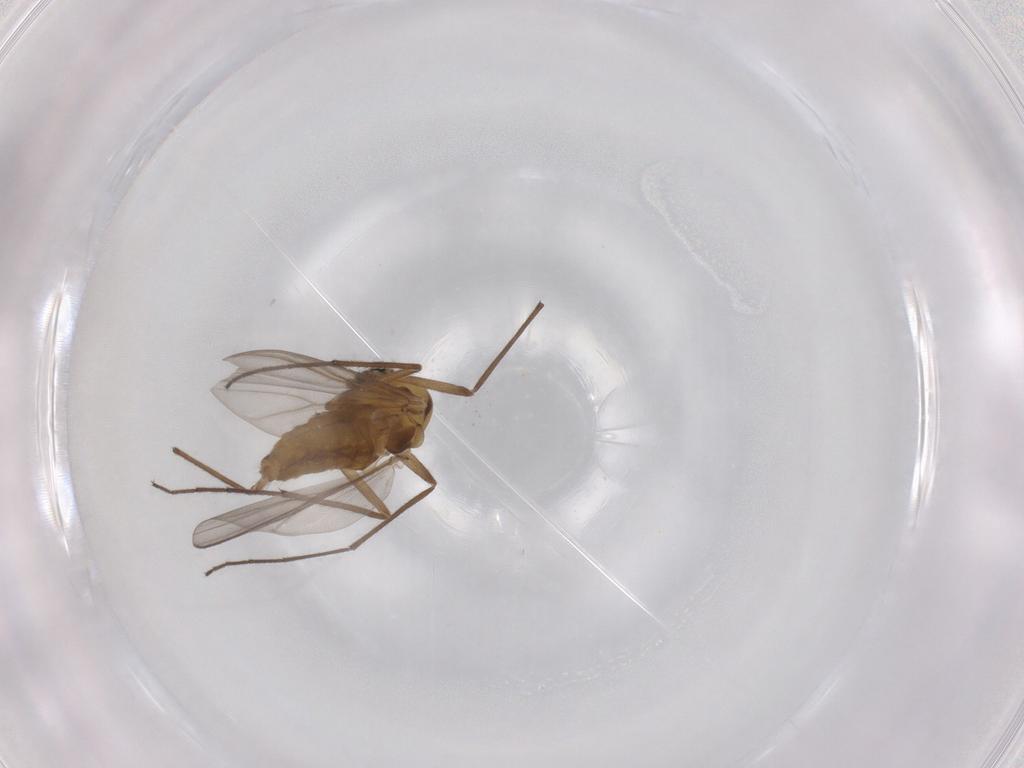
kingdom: Animalia
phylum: Arthropoda
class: Insecta
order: Diptera
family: Chironomidae
